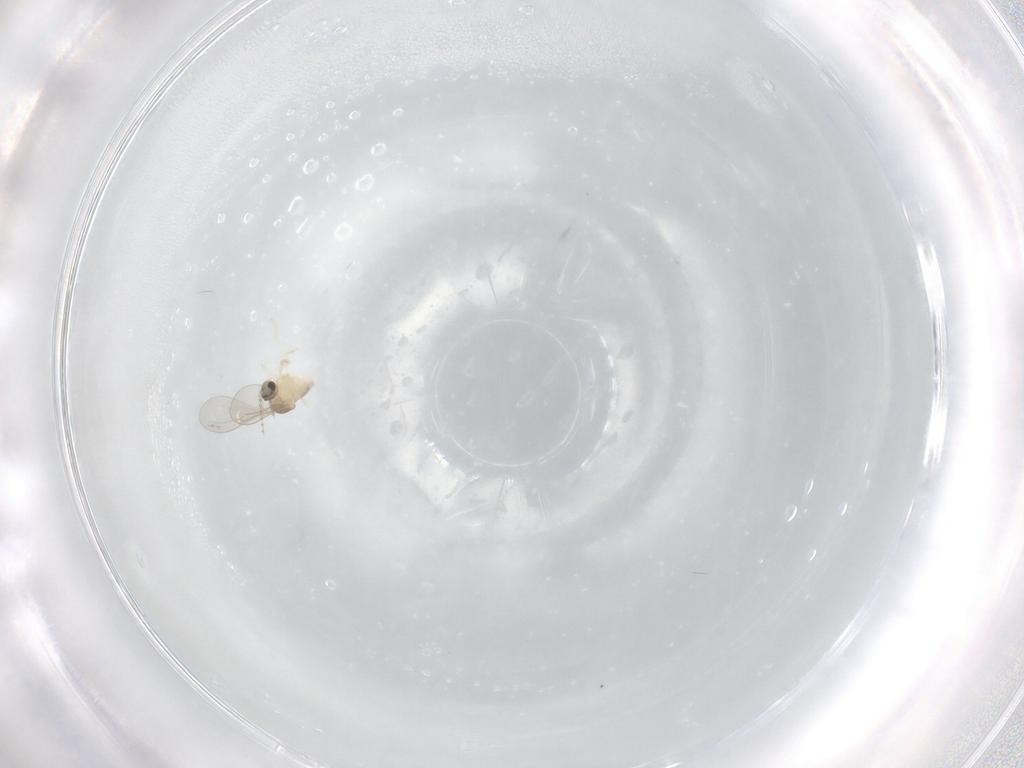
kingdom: Animalia
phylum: Arthropoda
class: Insecta
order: Diptera
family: Cecidomyiidae
